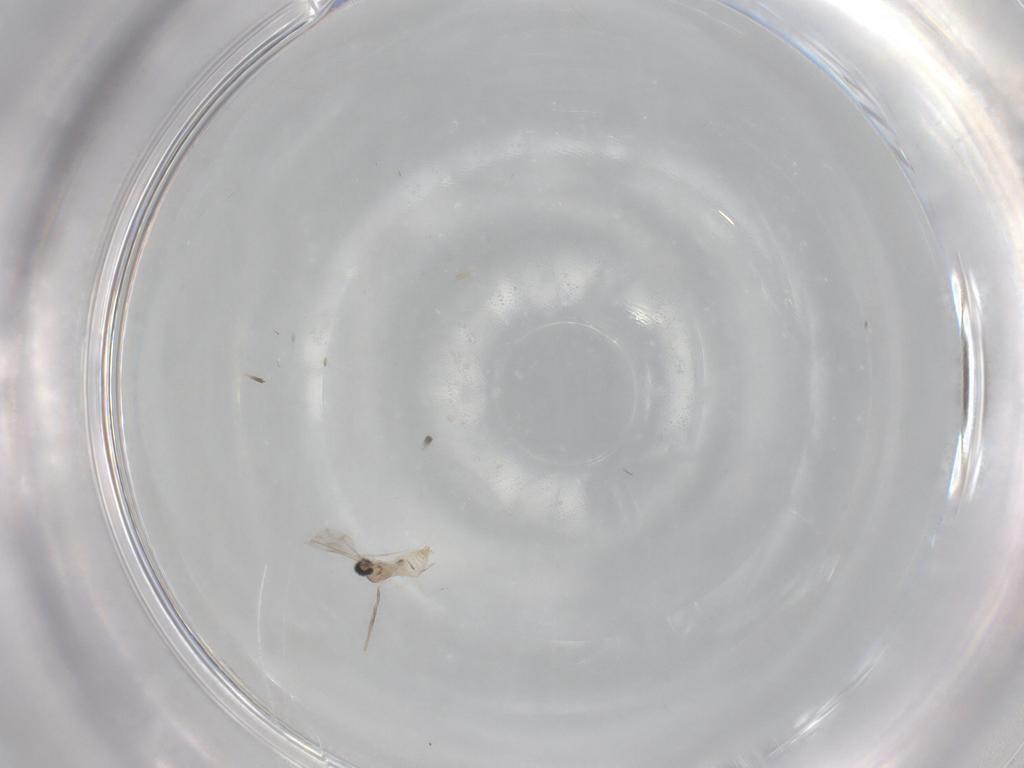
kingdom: Animalia
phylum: Arthropoda
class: Insecta
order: Diptera
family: Cecidomyiidae
